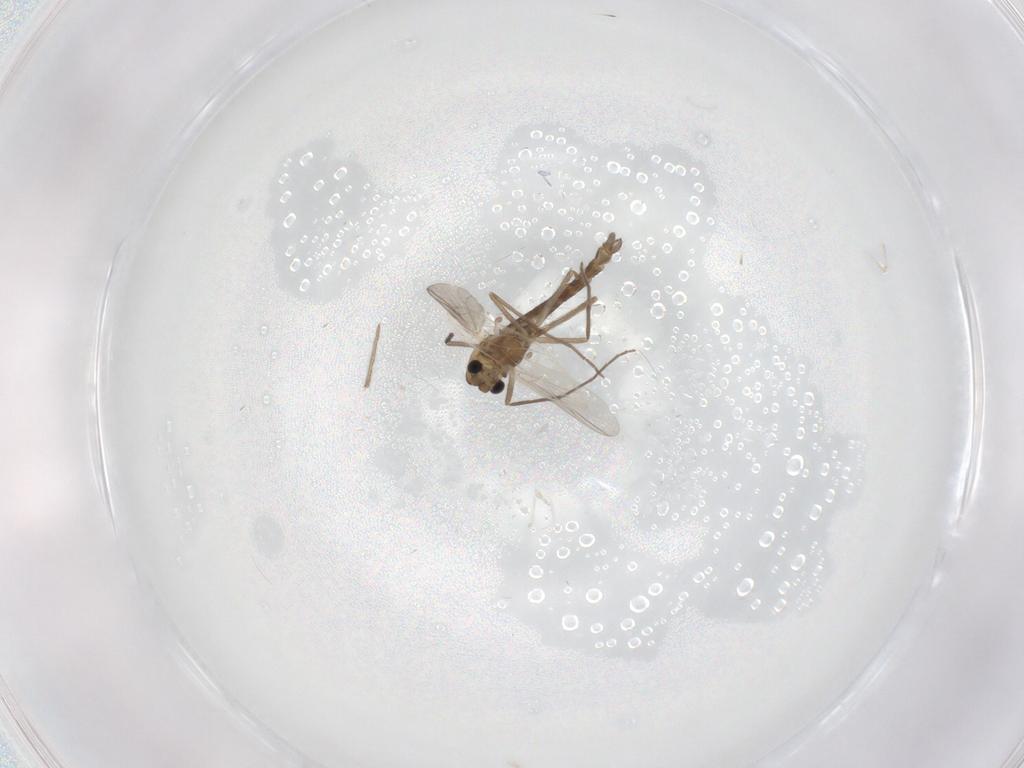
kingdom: Animalia
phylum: Arthropoda
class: Insecta
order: Diptera
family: Chironomidae
